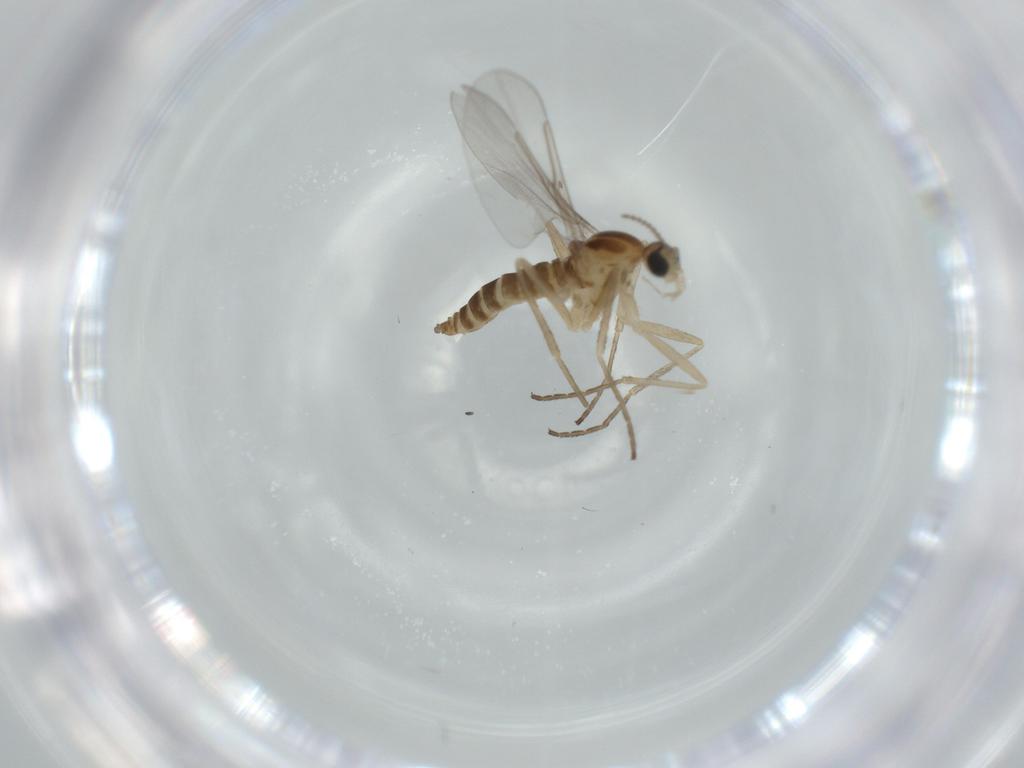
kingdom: Animalia
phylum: Arthropoda
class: Insecta
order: Diptera
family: Cecidomyiidae
